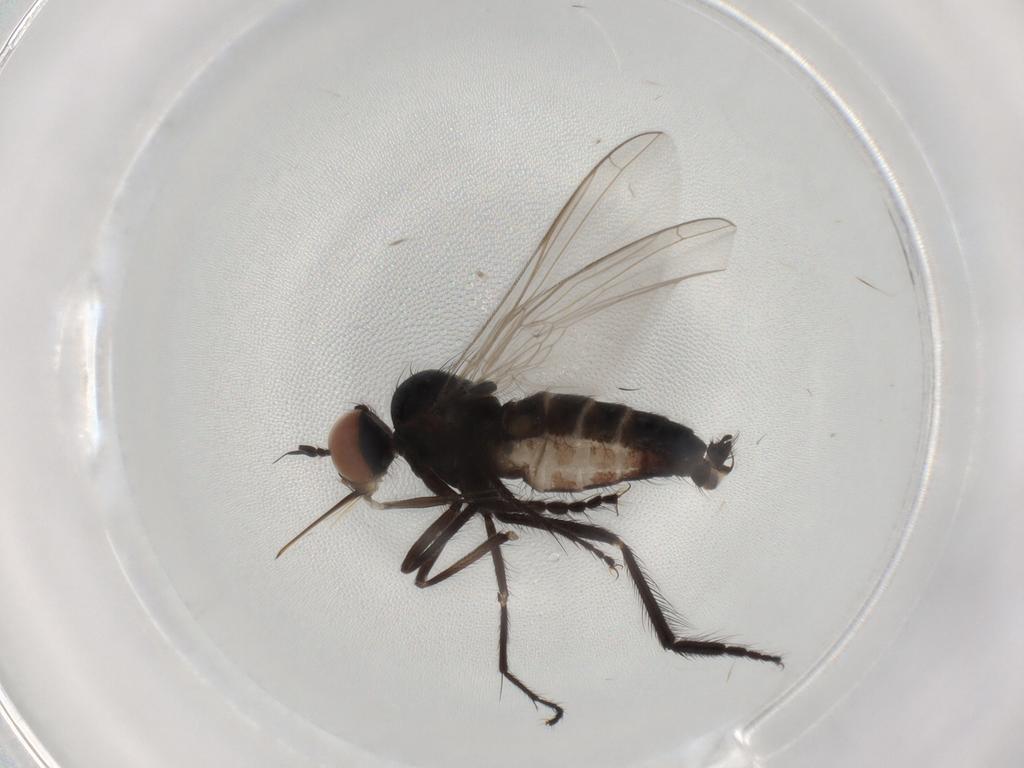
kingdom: Animalia
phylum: Arthropoda
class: Insecta
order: Diptera
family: Empididae
